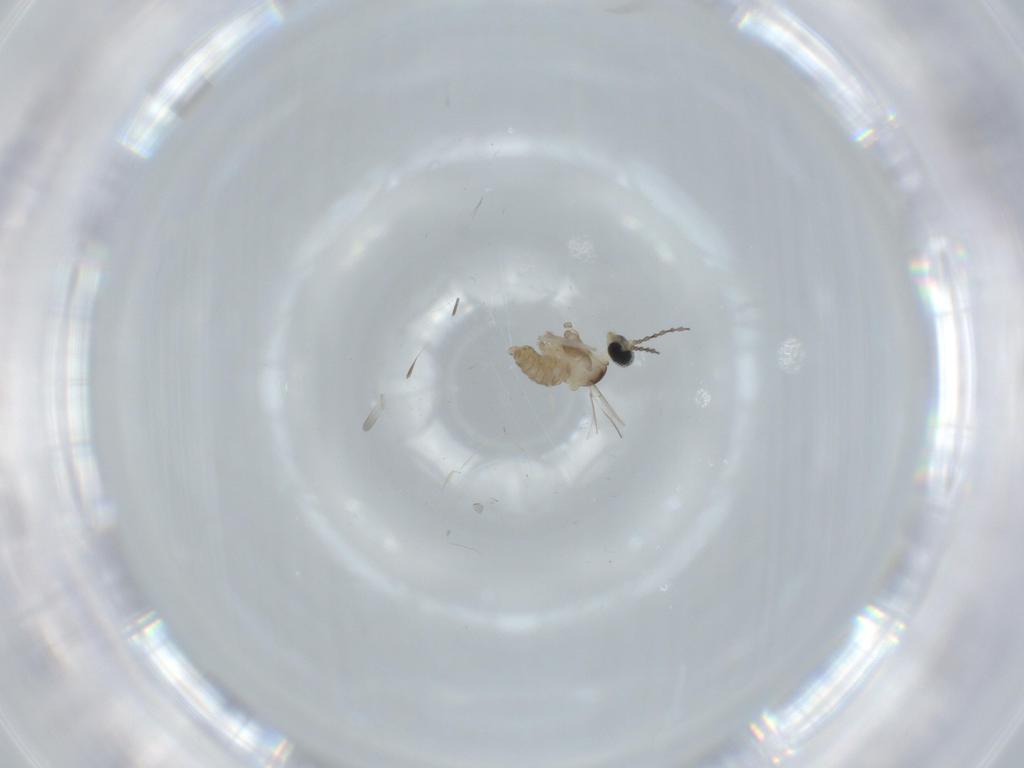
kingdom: Animalia
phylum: Arthropoda
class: Insecta
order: Diptera
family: Cecidomyiidae
